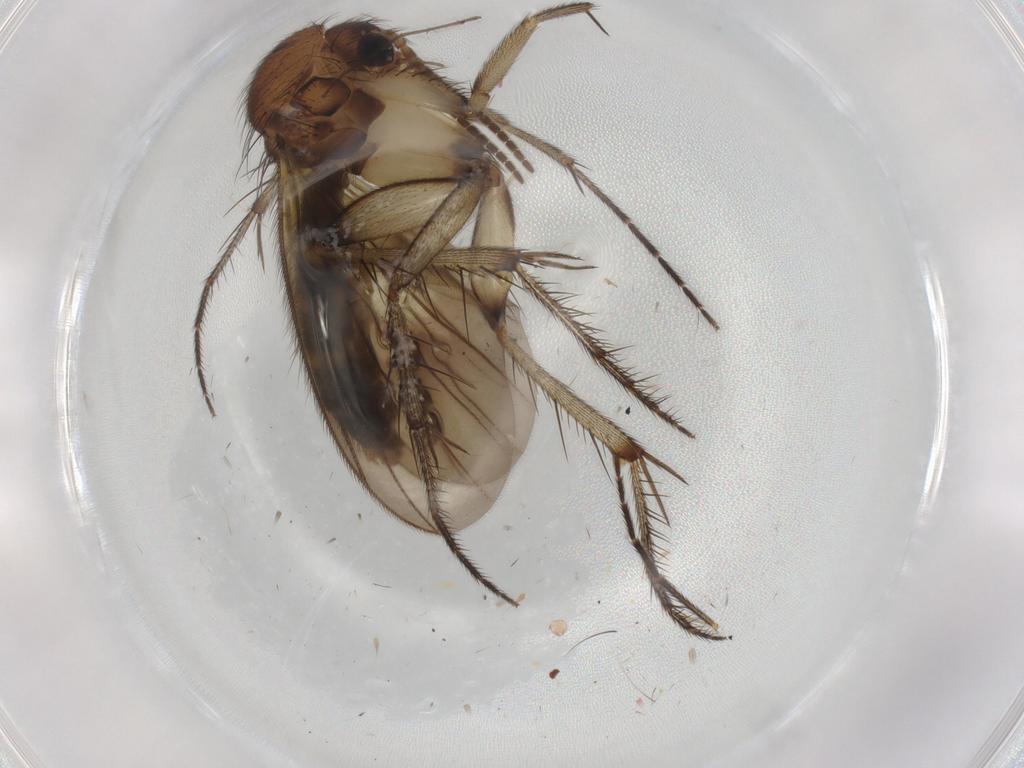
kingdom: Animalia
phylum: Arthropoda
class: Insecta
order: Diptera
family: Mycetophilidae
